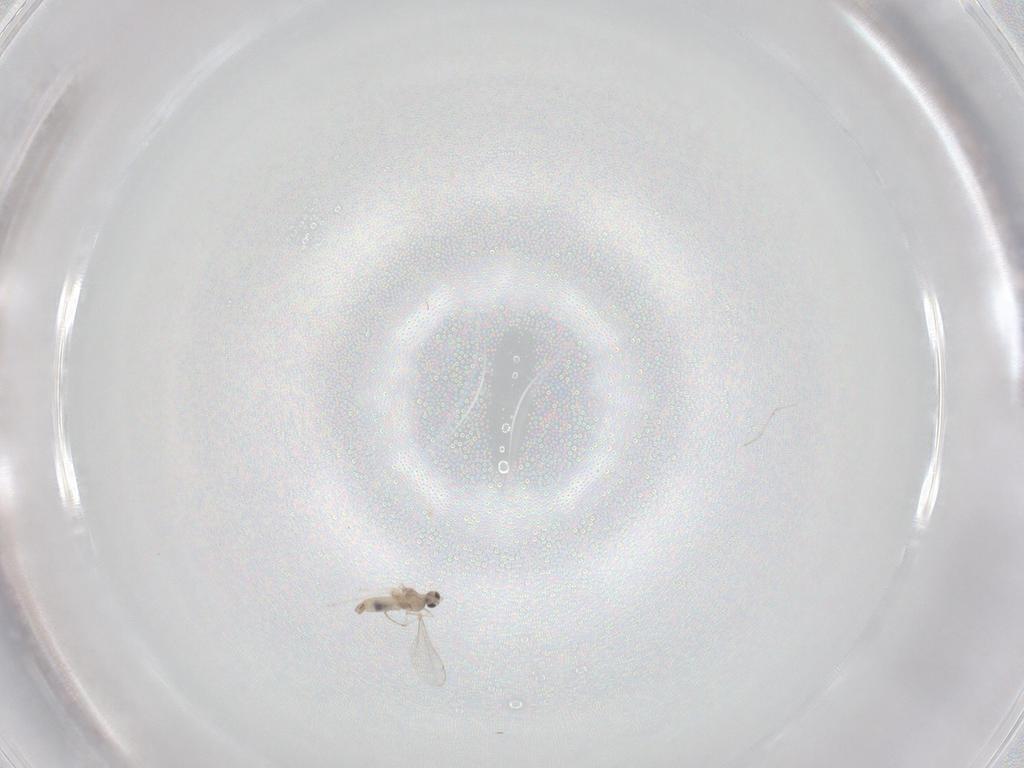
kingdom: Animalia
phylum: Arthropoda
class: Insecta
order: Diptera
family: Cecidomyiidae
